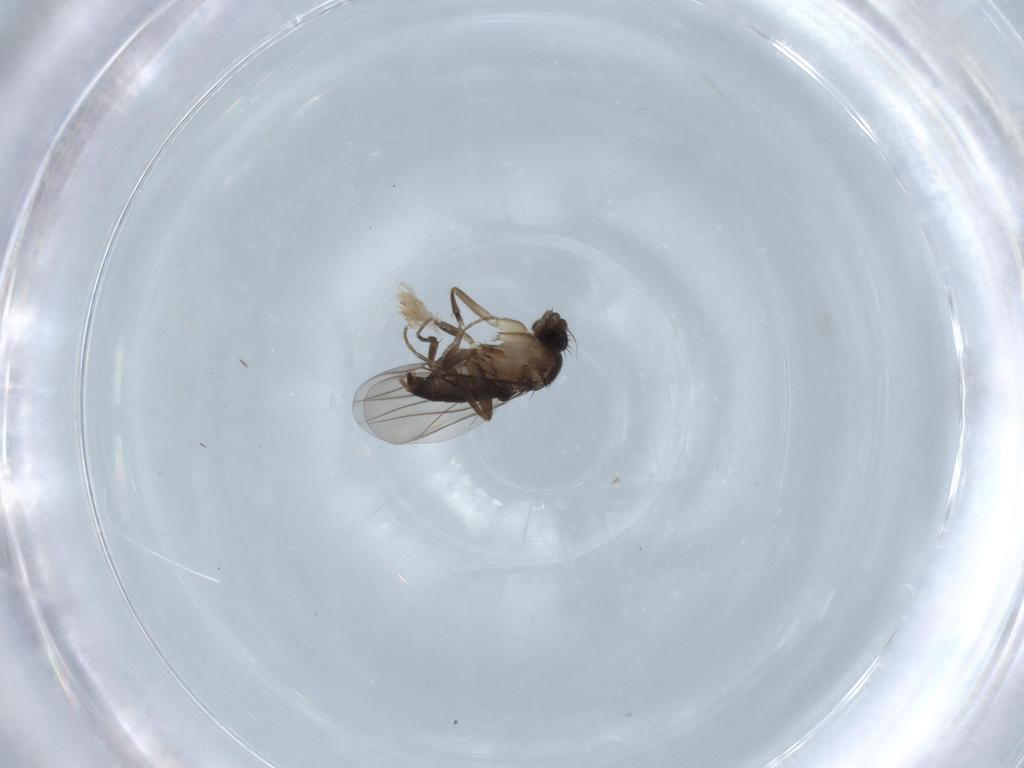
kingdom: Animalia
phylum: Arthropoda
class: Insecta
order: Diptera
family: Phoridae
